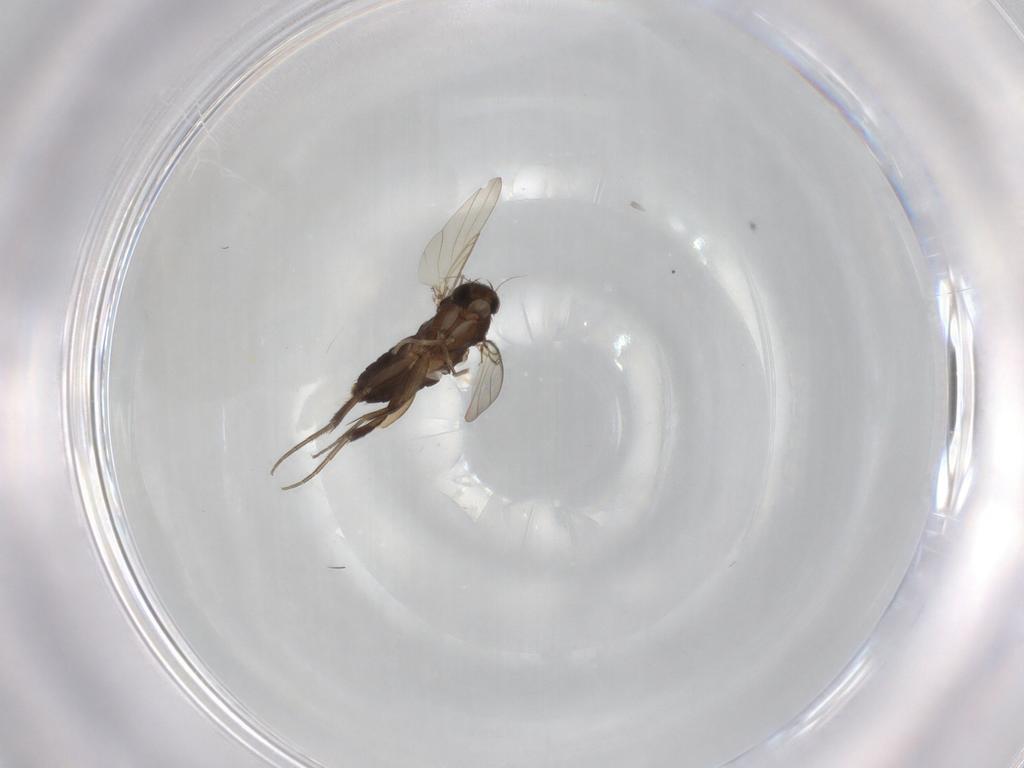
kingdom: Animalia
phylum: Arthropoda
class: Insecta
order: Diptera
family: Phoridae
